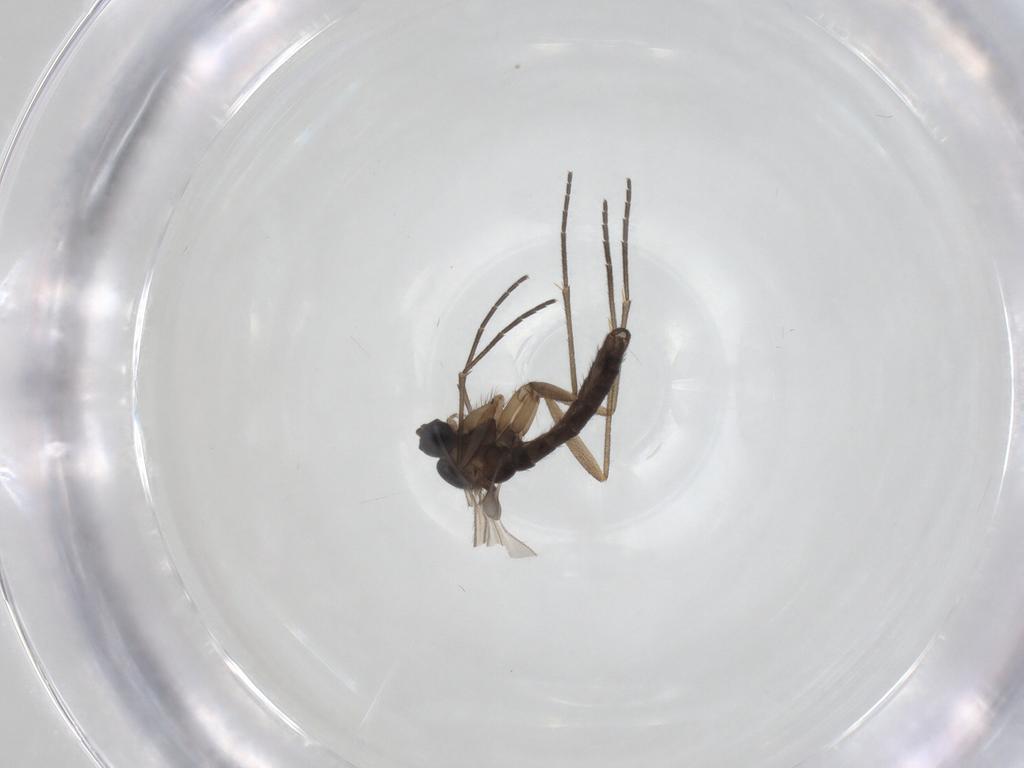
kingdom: Animalia
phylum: Arthropoda
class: Insecta
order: Diptera
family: Sciaridae
